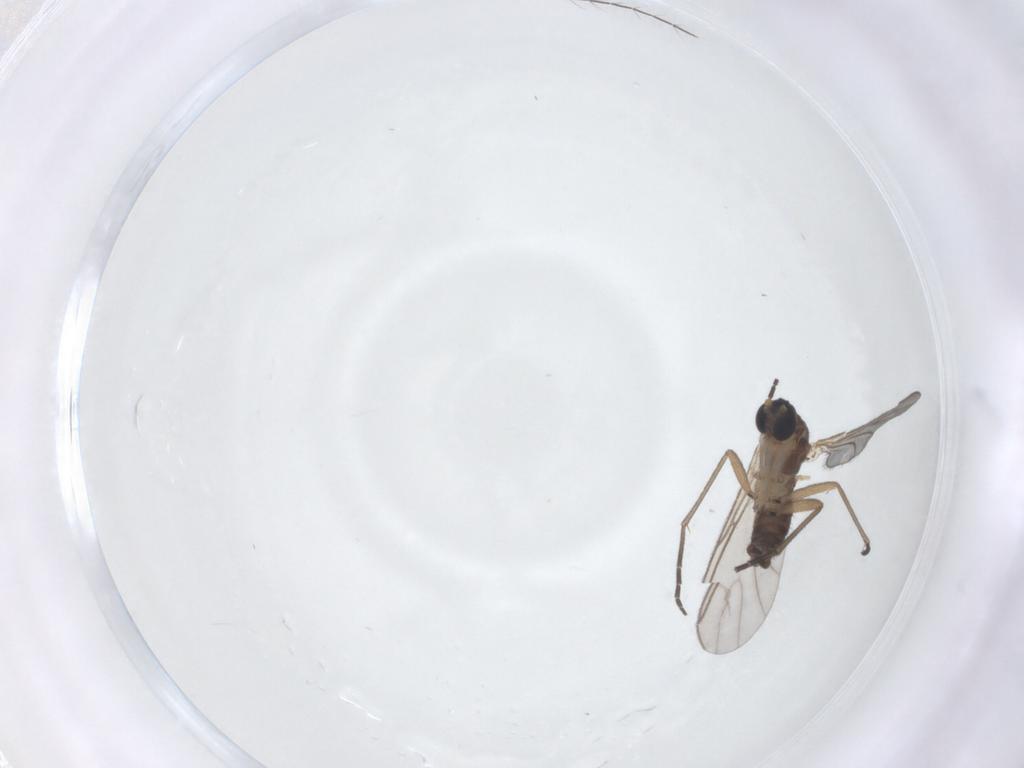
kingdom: Animalia
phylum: Arthropoda
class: Insecta
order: Diptera
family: Sciaridae
